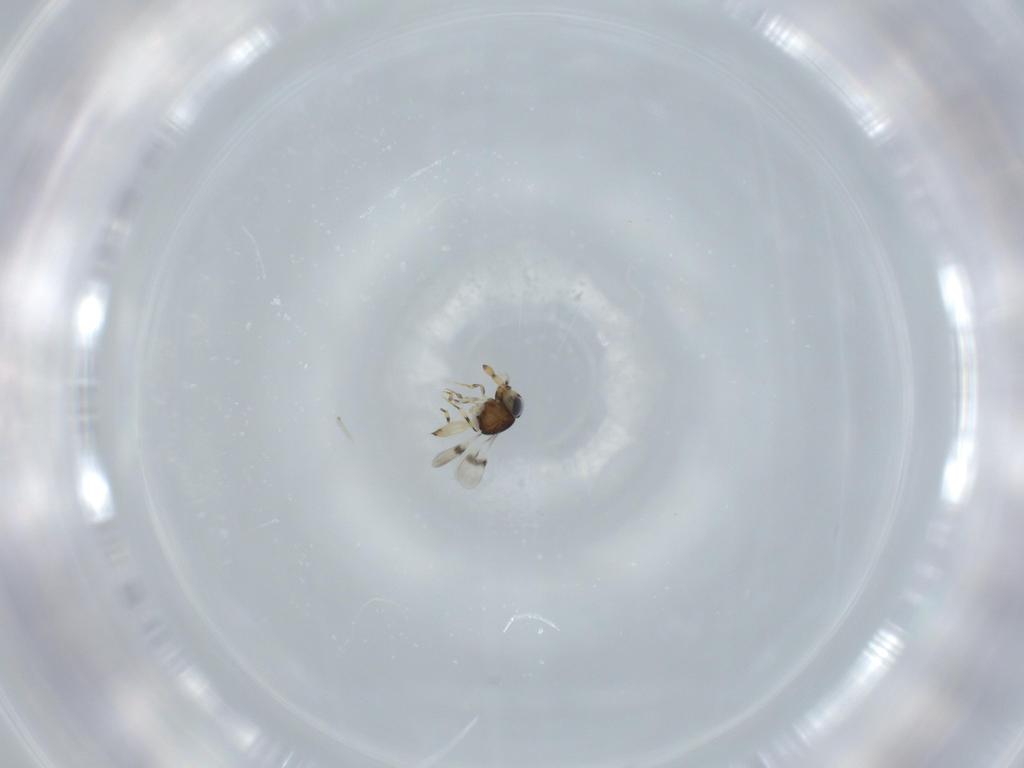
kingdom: Animalia
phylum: Arthropoda
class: Insecta
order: Hymenoptera
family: Scelionidae
